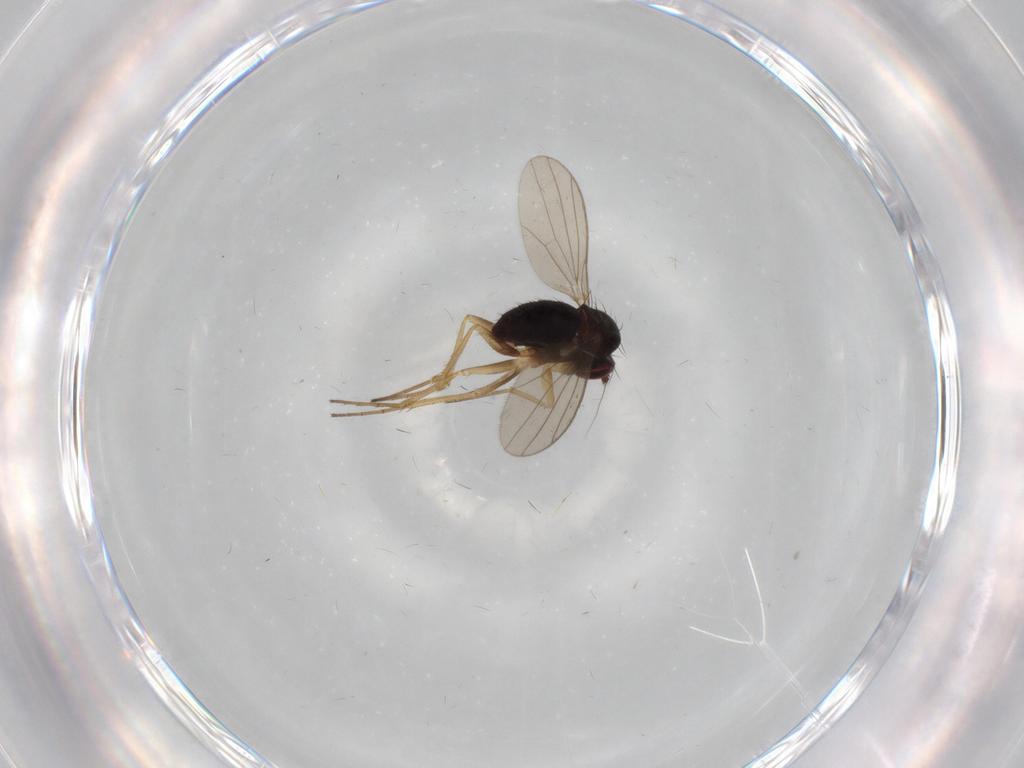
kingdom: Animalia
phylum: Arthropoda
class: Insecta
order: Diptera
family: Dolichopodidae
